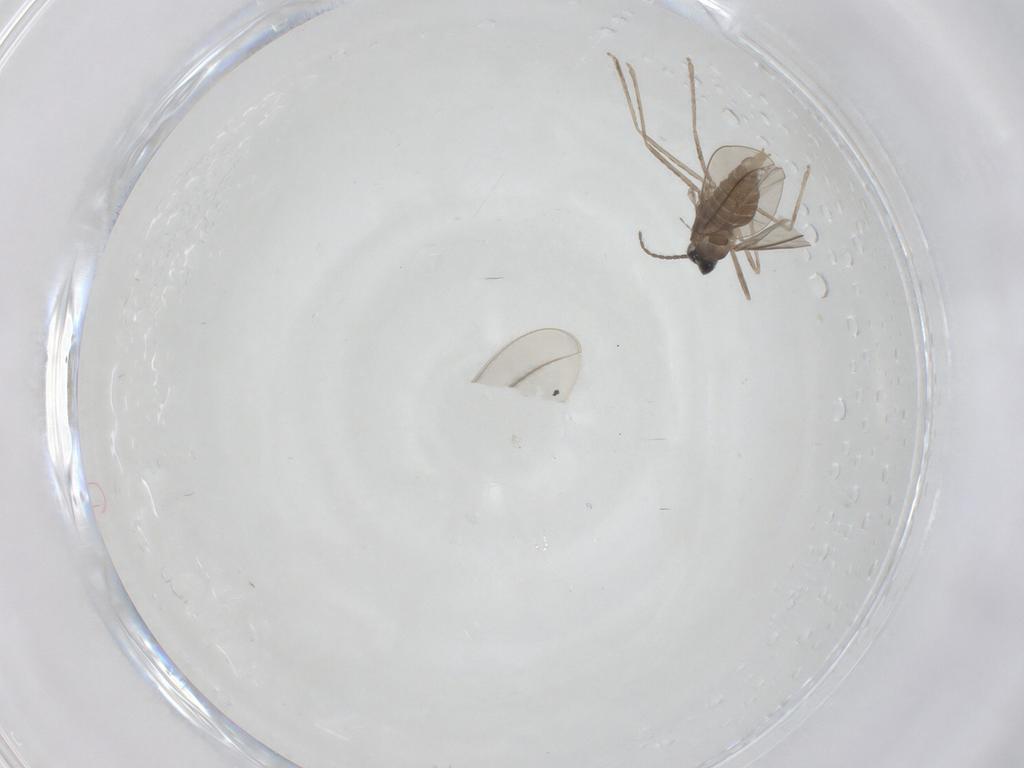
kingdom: Animalia
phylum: Arthropoda
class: Insecta
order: Diptera
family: Cecidomyiidae
